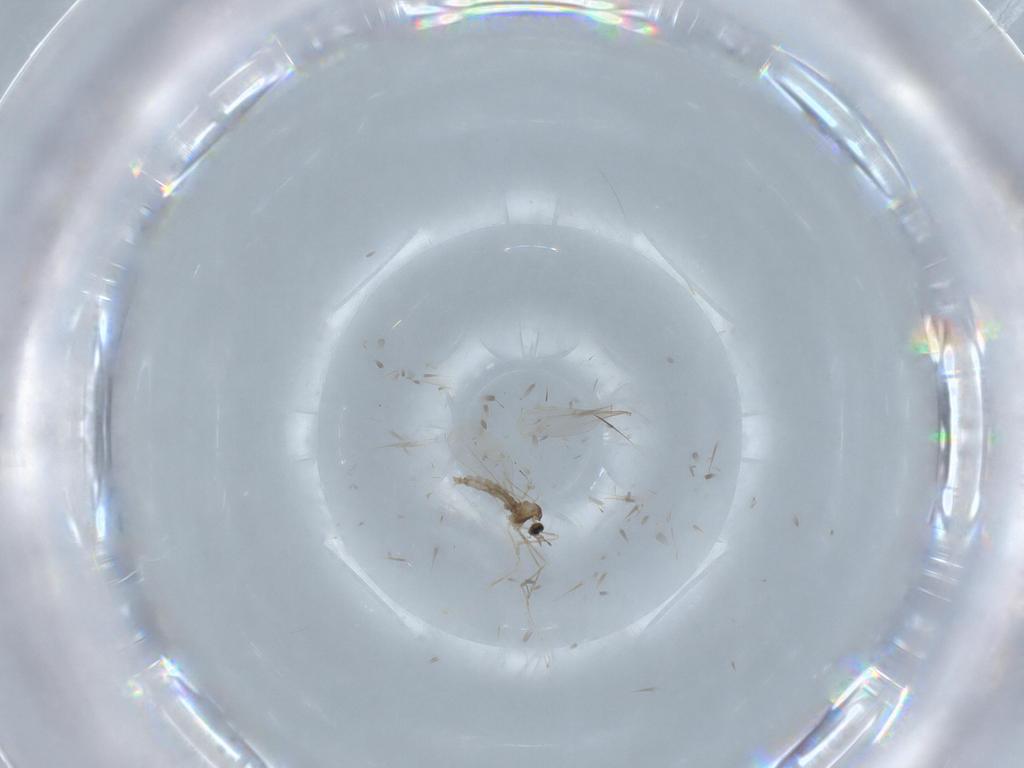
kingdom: Animalia
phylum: Arthropoda
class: Insecta
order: Diptera
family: Cecidomyiidae
